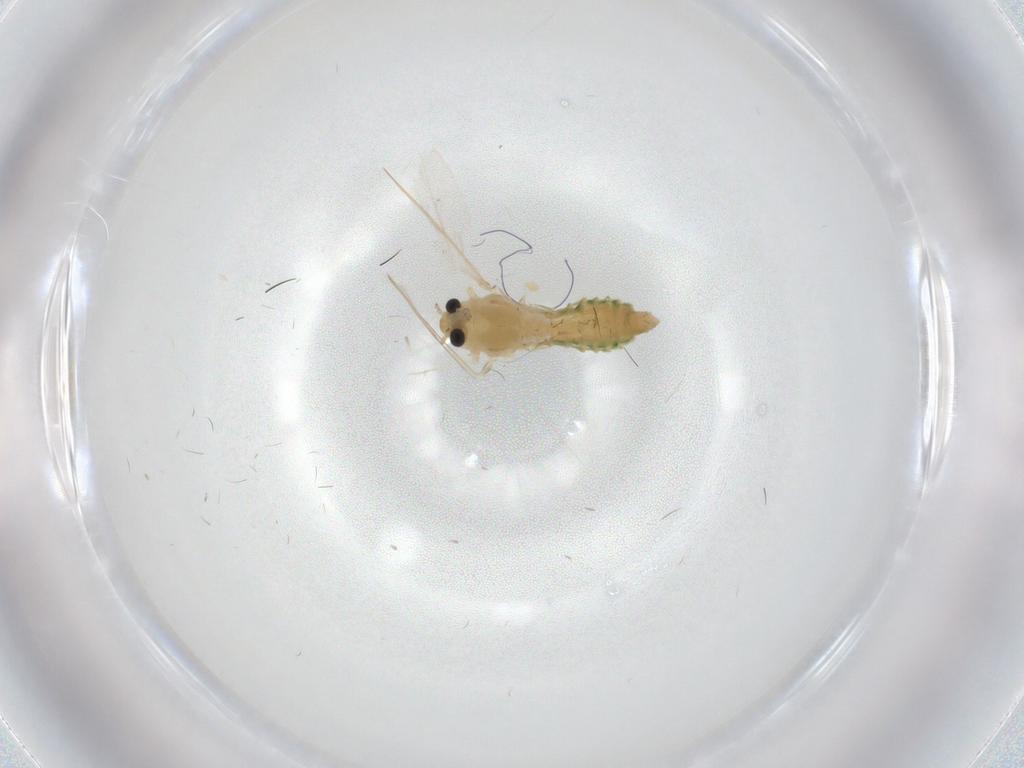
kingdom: Animalia
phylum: Arthropoda
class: Insecta
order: Diptera
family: Chironomidae
